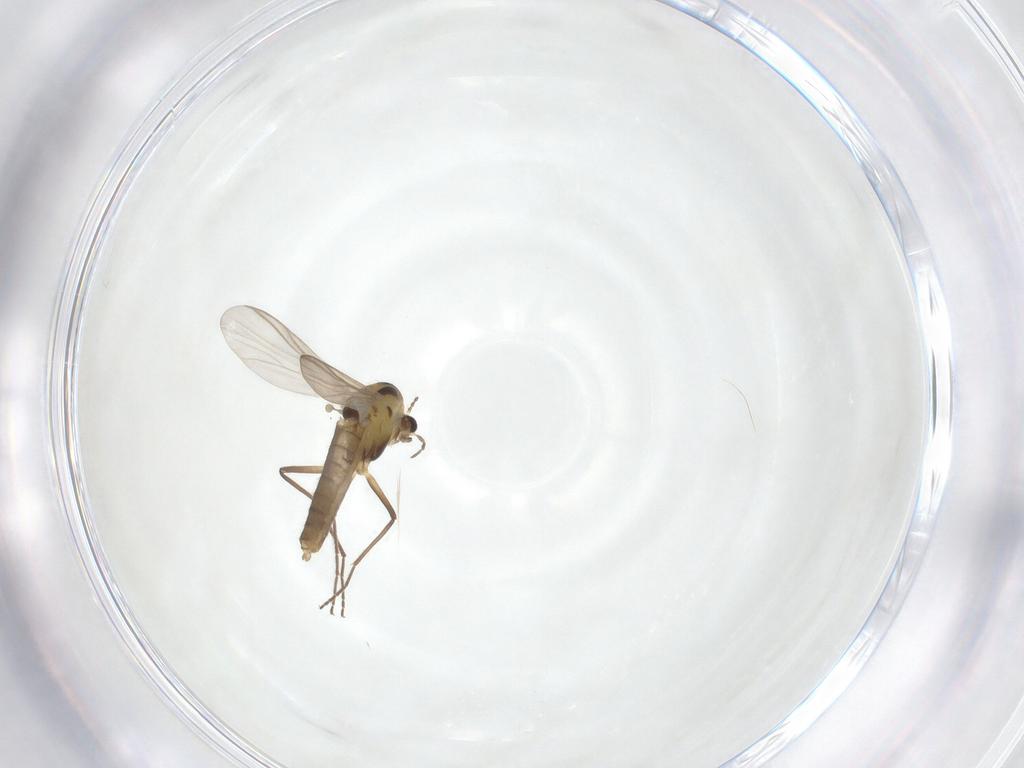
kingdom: Animalia
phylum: Arthropoda
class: Insecta
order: Diptera
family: Chironomidae
